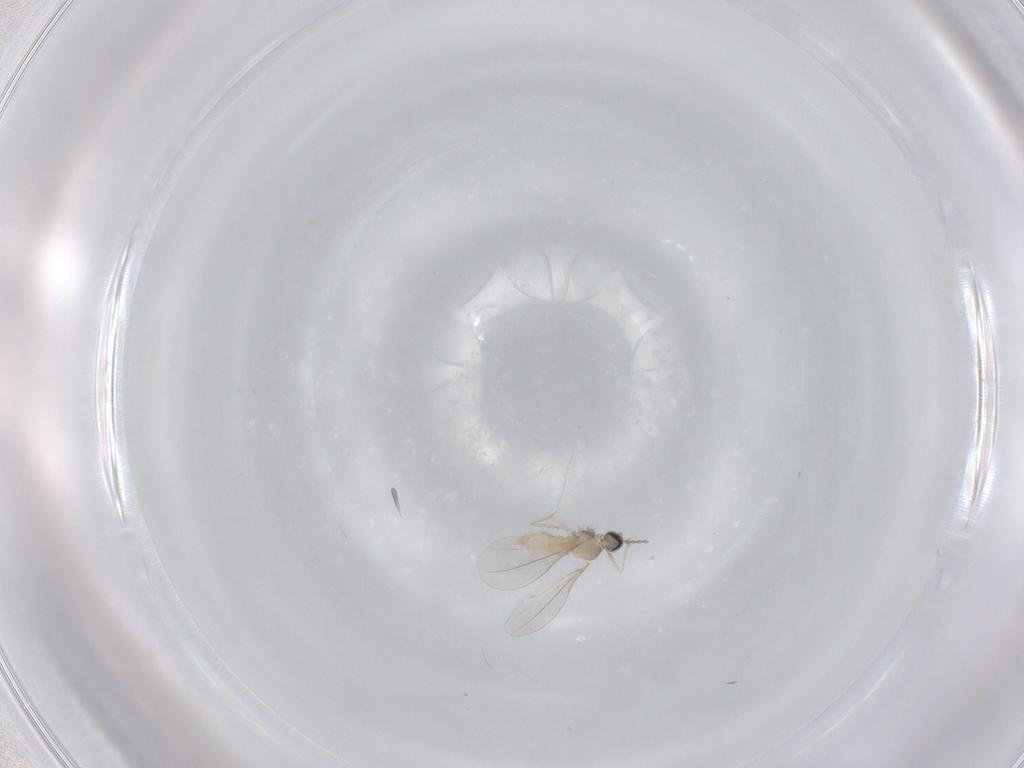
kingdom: Animalia
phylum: Arthropoda
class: Insecta
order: Diptera
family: Cecidomyiidae
